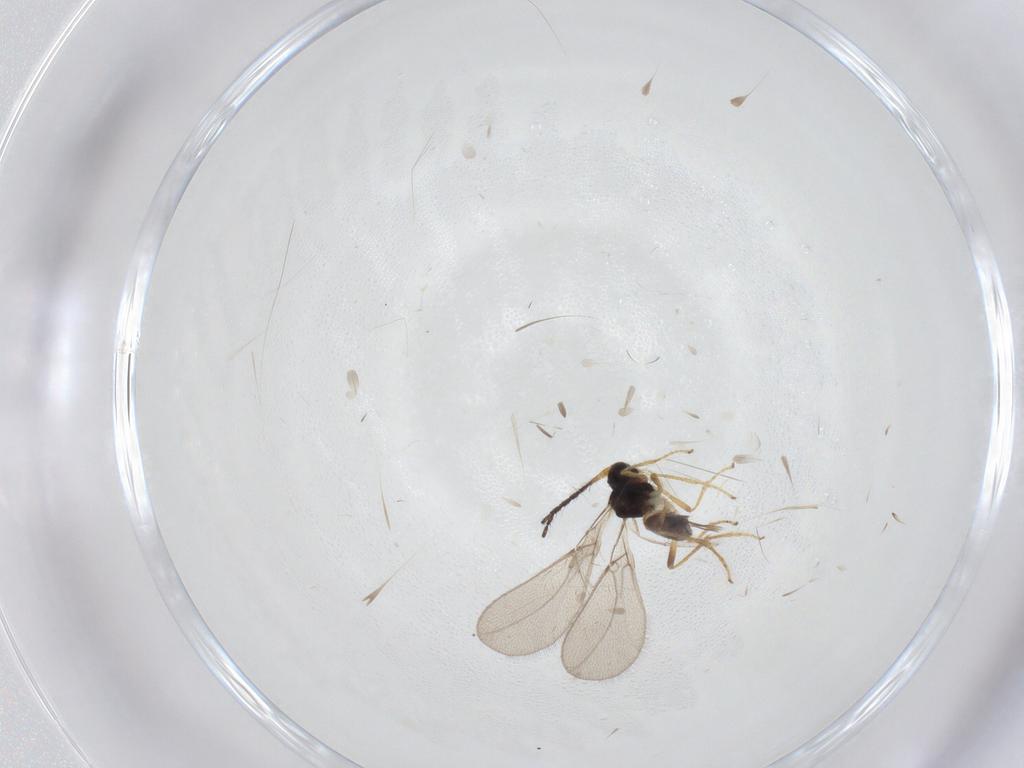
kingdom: Animalia
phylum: Arthropoda
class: Insecta
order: Hymenoptera
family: Braconidae
